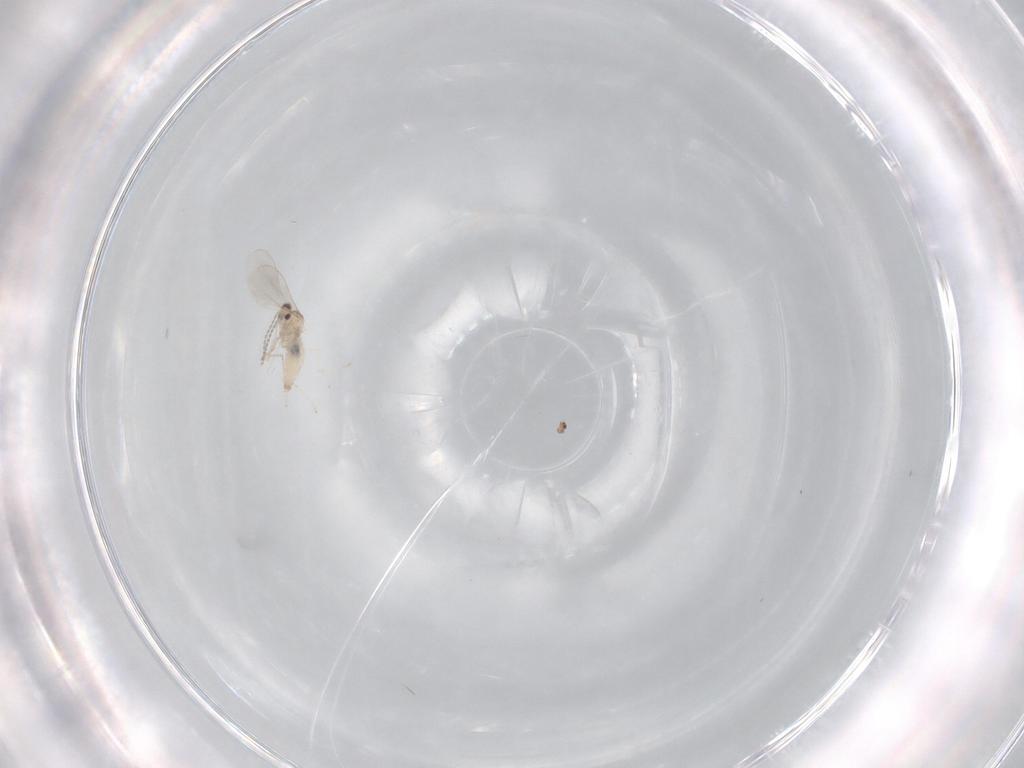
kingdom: Animalia
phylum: Arthropoda
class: Insecta
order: Diptera
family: Cecidomyiidae
